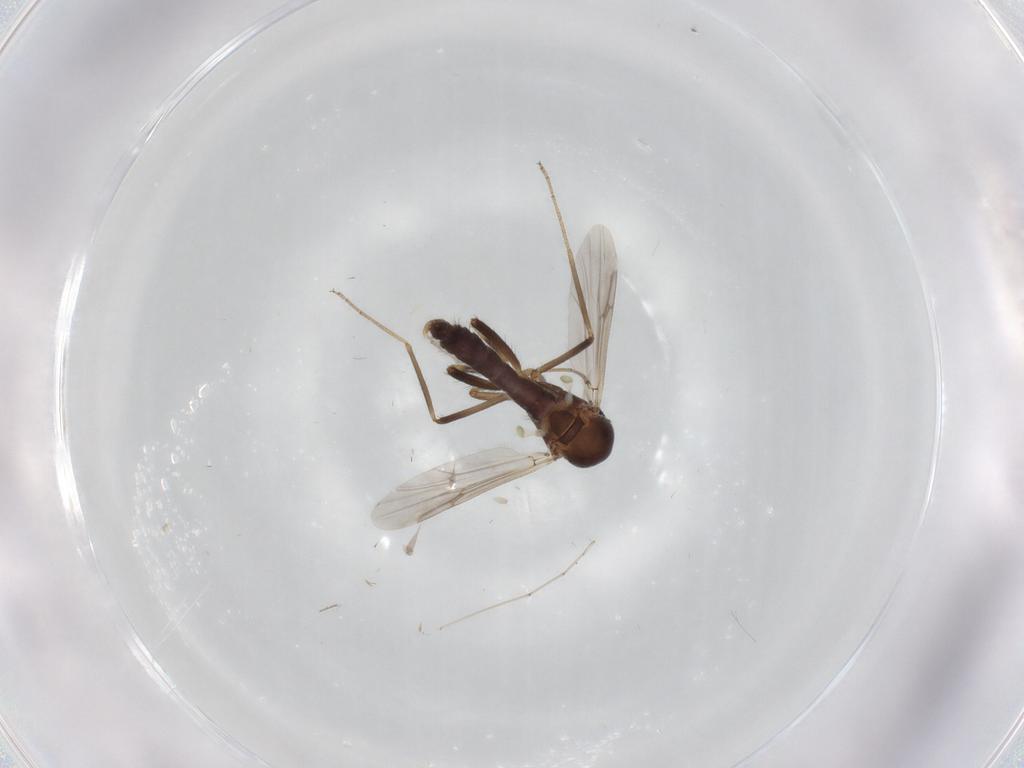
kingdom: Animalia
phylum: Arthropoda
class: Insecta
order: Diptera
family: Ceratopogonidae
